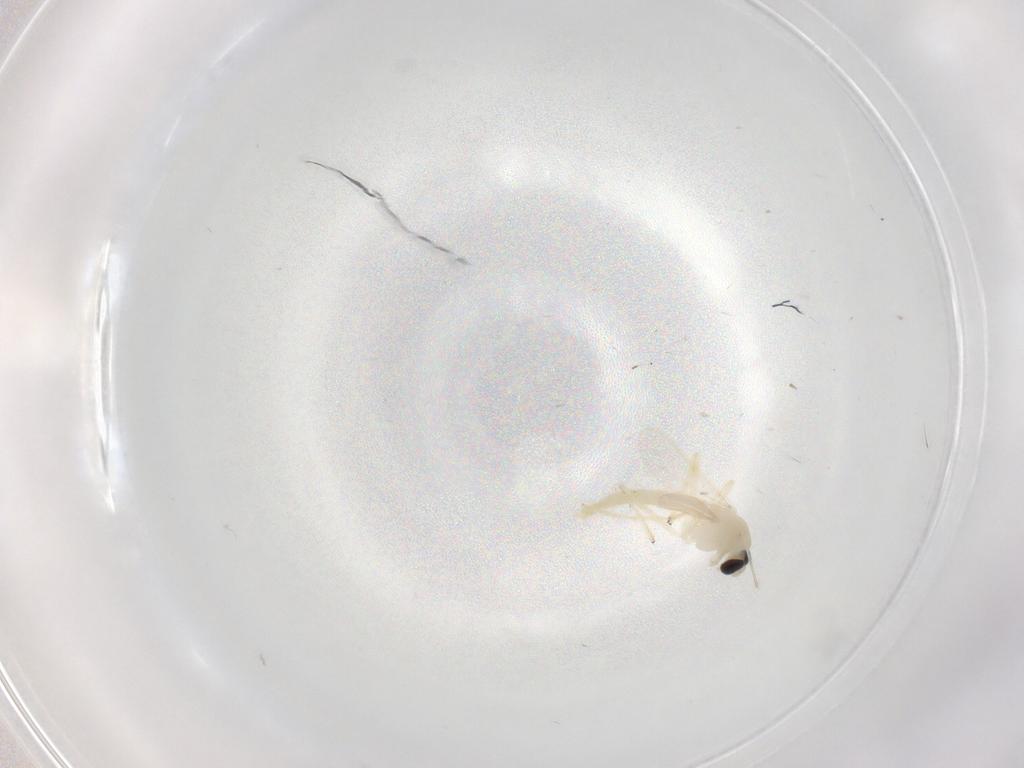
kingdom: Animalia
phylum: Arthropoda
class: Insecta
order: Diptera
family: Chironomidae
